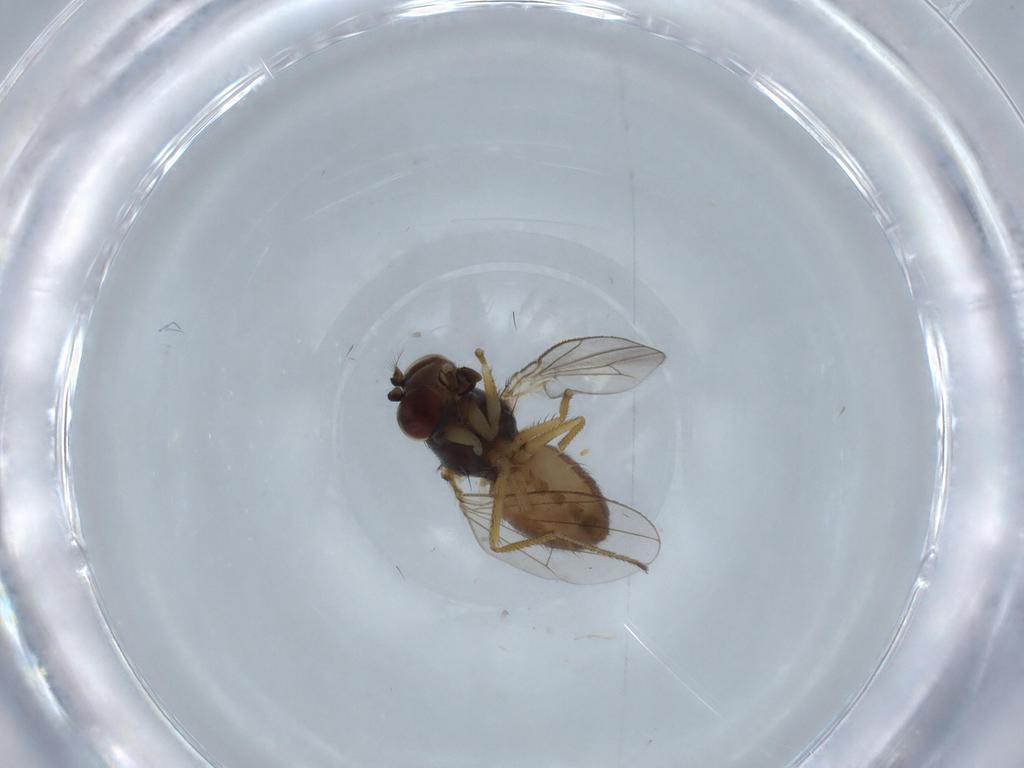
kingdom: Animalia
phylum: Arthropoda
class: Insecta
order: Diptera
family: Ephydridae
